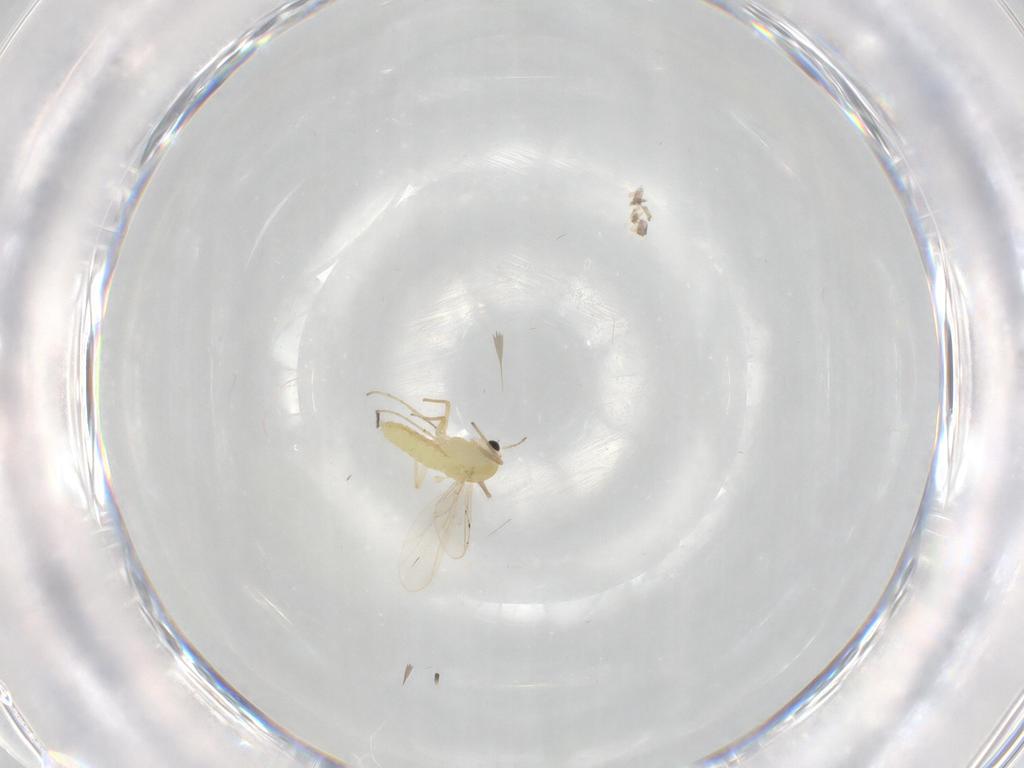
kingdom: Animalia
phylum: Arthropoda
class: Insecta
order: Diptera
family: Chironomidae
